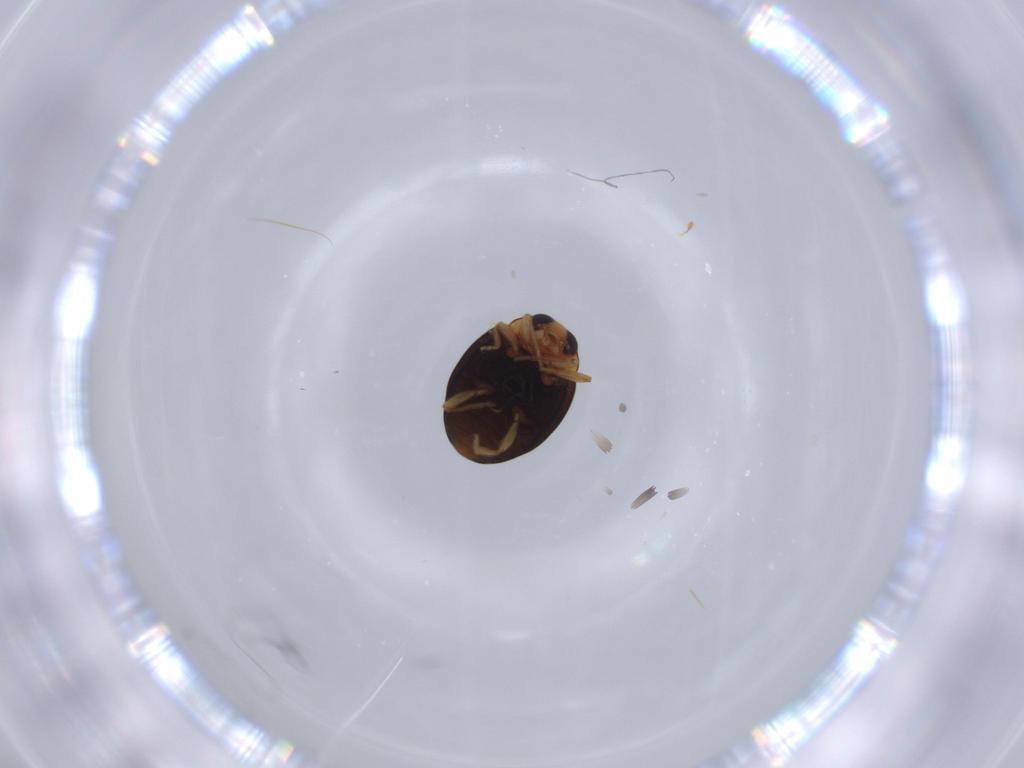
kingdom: Animalia
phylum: Arthropoda
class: Insecta
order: Coleoptera
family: Coccinellidae
